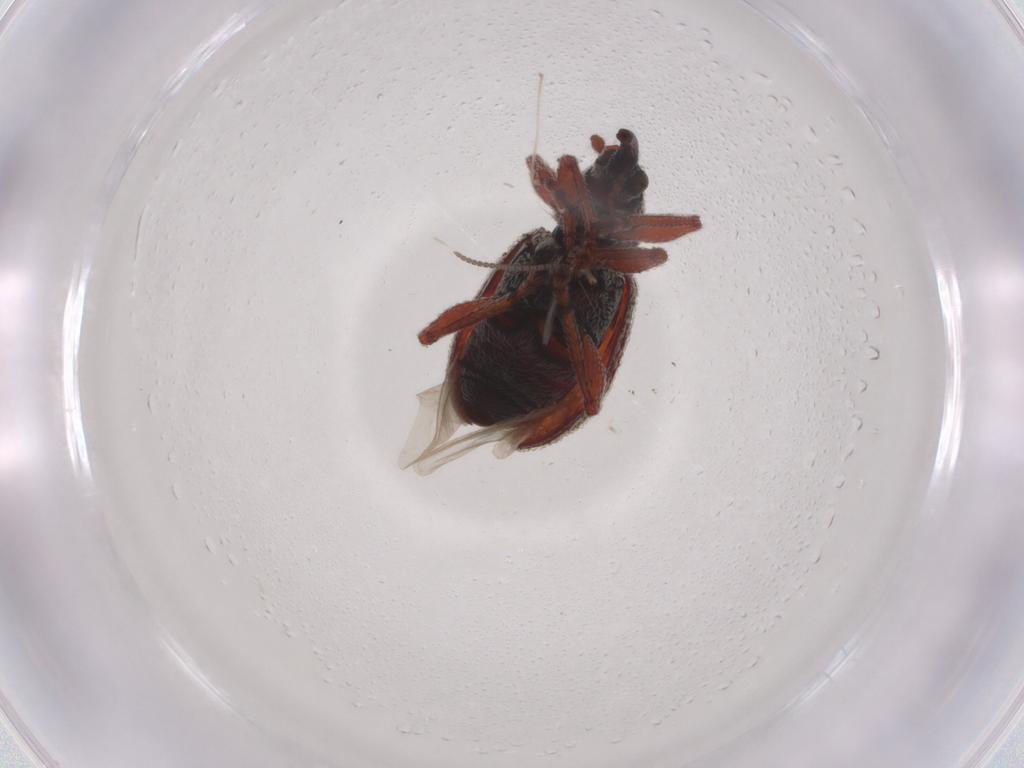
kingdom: Animalia
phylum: Arthropoda
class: Insecta
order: Coleoptera
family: Brentidae
